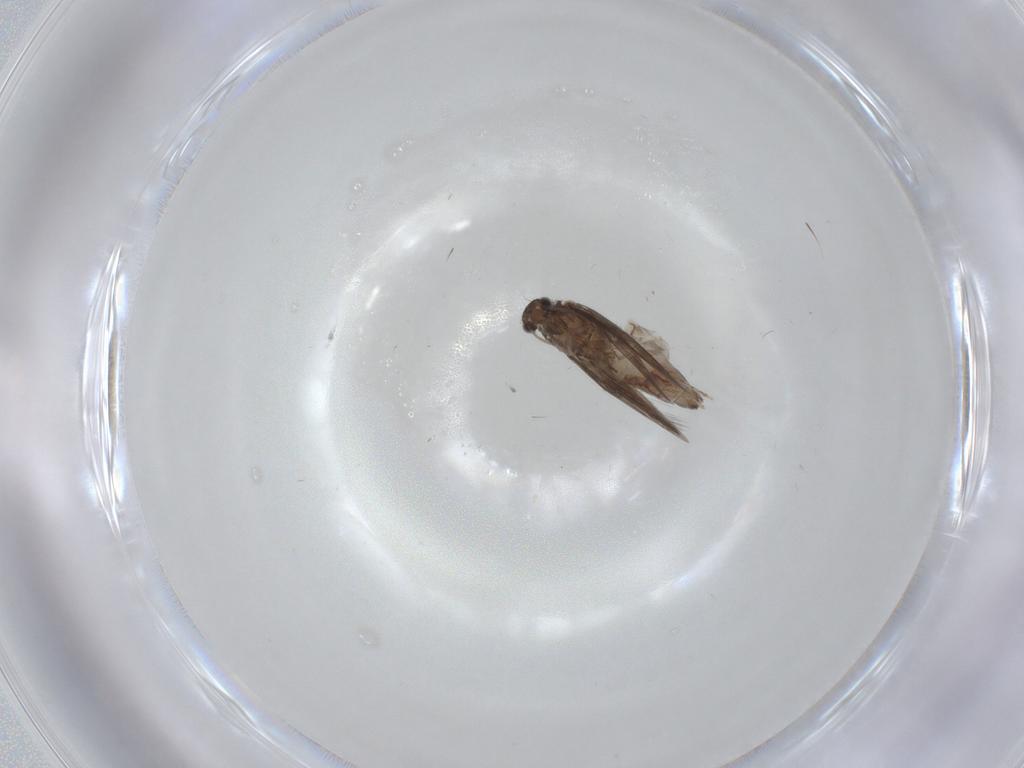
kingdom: Animalia
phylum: Arthropoda
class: Insecta
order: Trichoptera
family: Hydroptilidae
